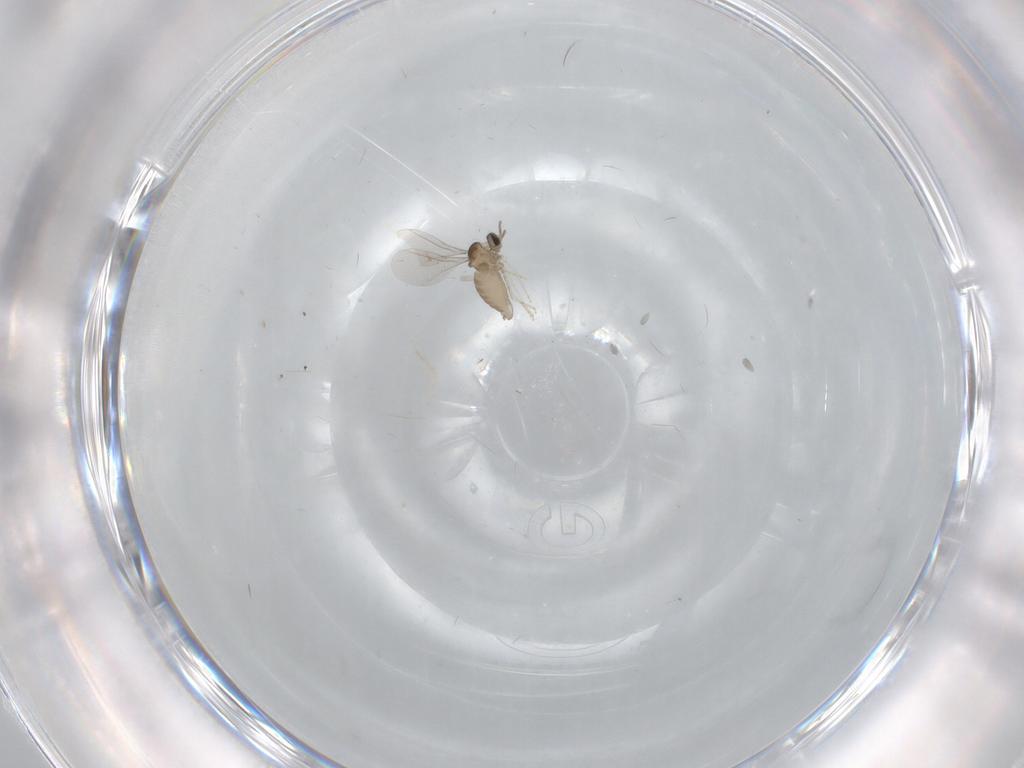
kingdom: Animalia
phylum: Arthropoda
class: Insecta
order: Diptera
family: Cecidomyiidae
